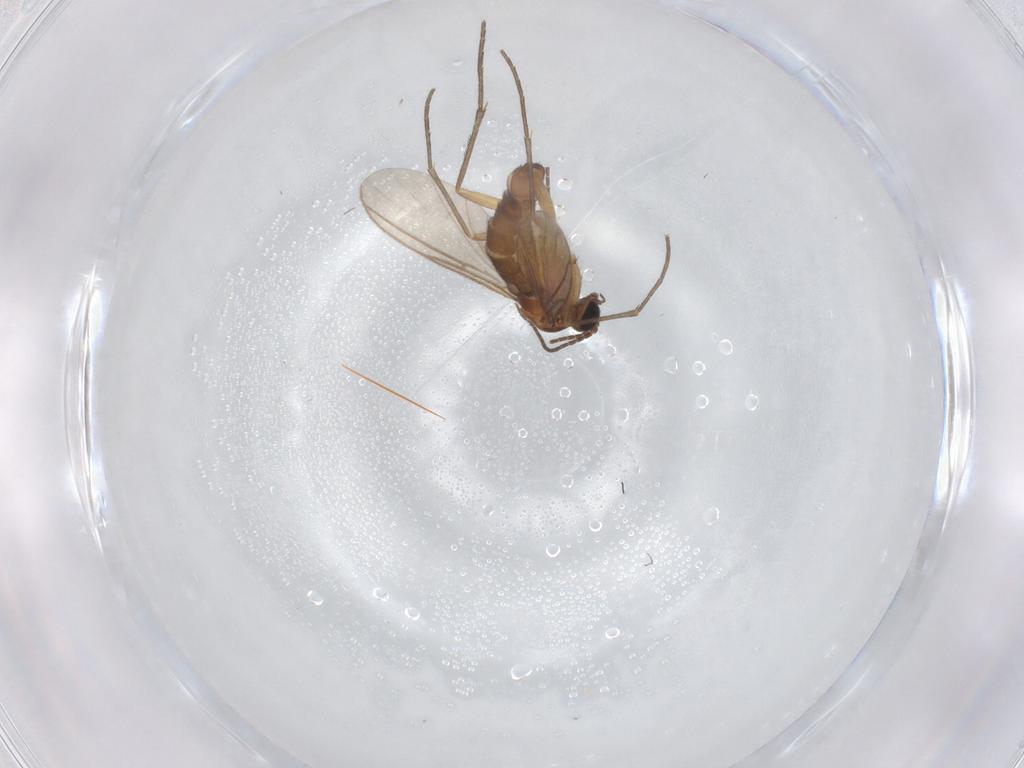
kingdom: Animalia
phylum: Arthropoda
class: Insecta
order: Diptera
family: Sciaridae
